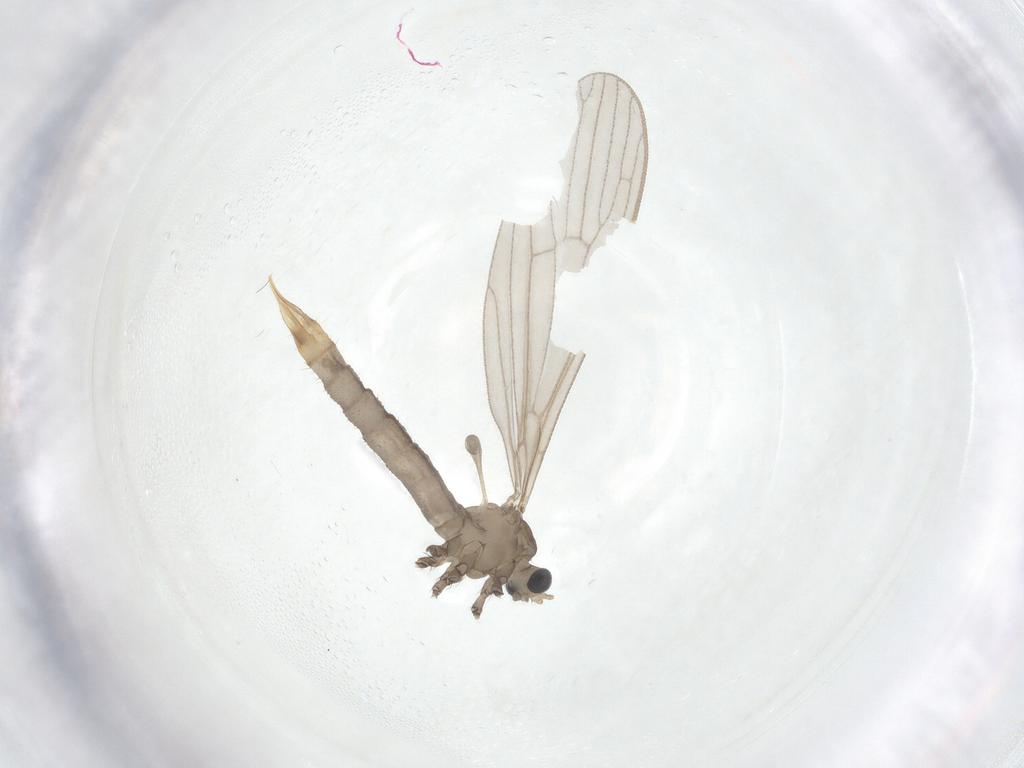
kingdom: Animalia
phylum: Arthropoda
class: Insecta
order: Diptera
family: Limoniidae
